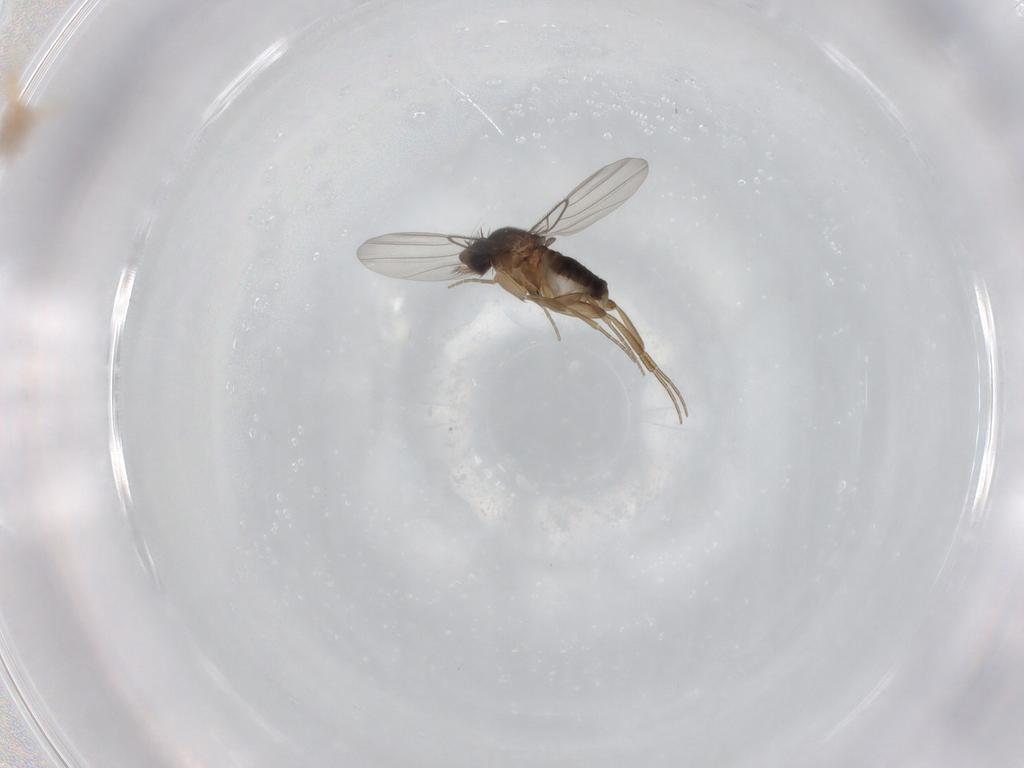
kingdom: Animalia
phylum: Arthropoda
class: Insecta
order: Diptera
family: Phoridae
